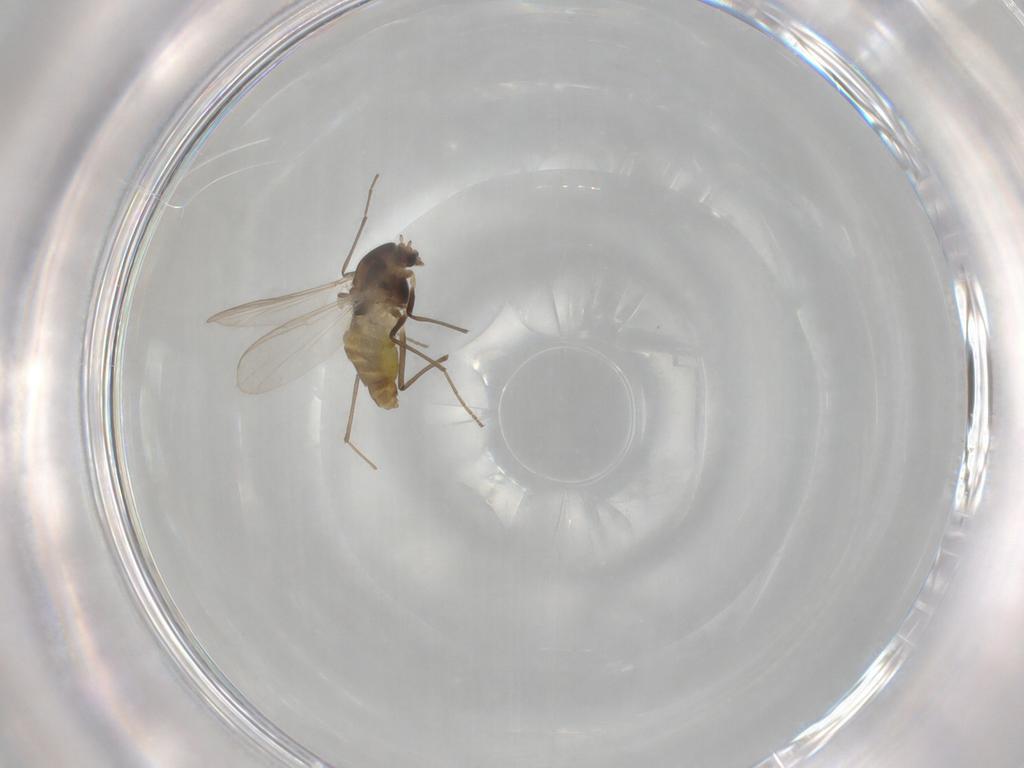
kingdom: Animalia
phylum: Arthropoda
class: Insecta
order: Diptera
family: Chironomidae
